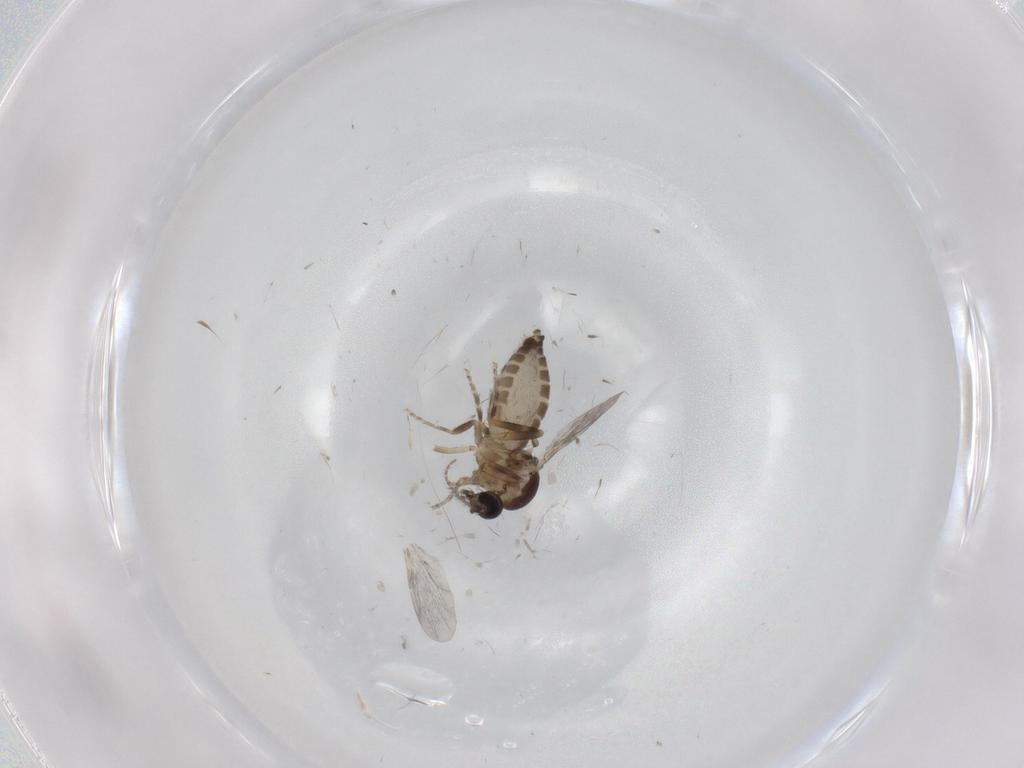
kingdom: Animalia
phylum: Arthropoda
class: Insecta
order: Diptera
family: Ceratopogonidae
